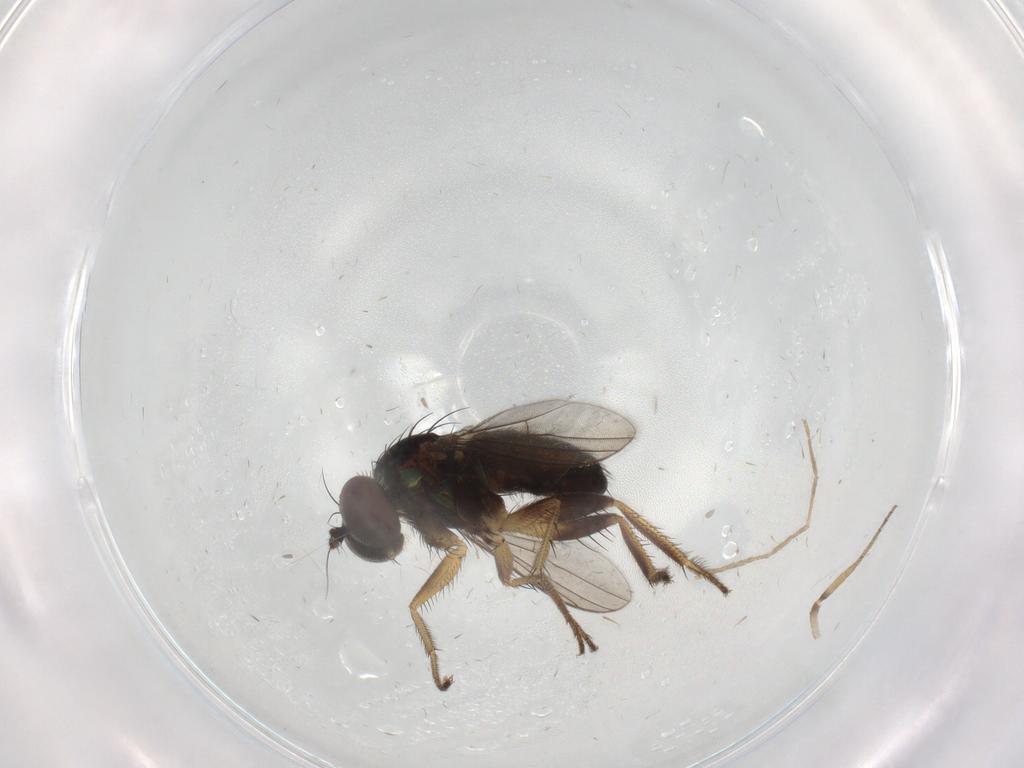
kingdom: Animalia
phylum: Arthropoda
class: Insecta
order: Diptera
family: Dolichopodidae
